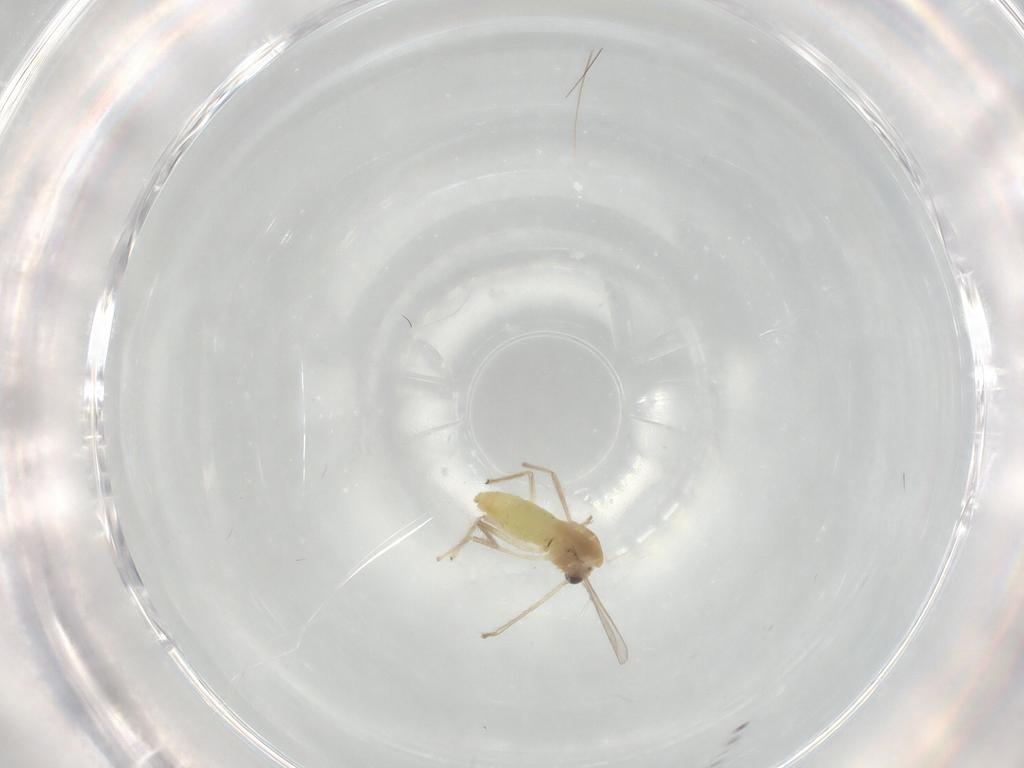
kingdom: Animalia
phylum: Arthropoda
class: Insecta
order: Diptera
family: Chironomidae
